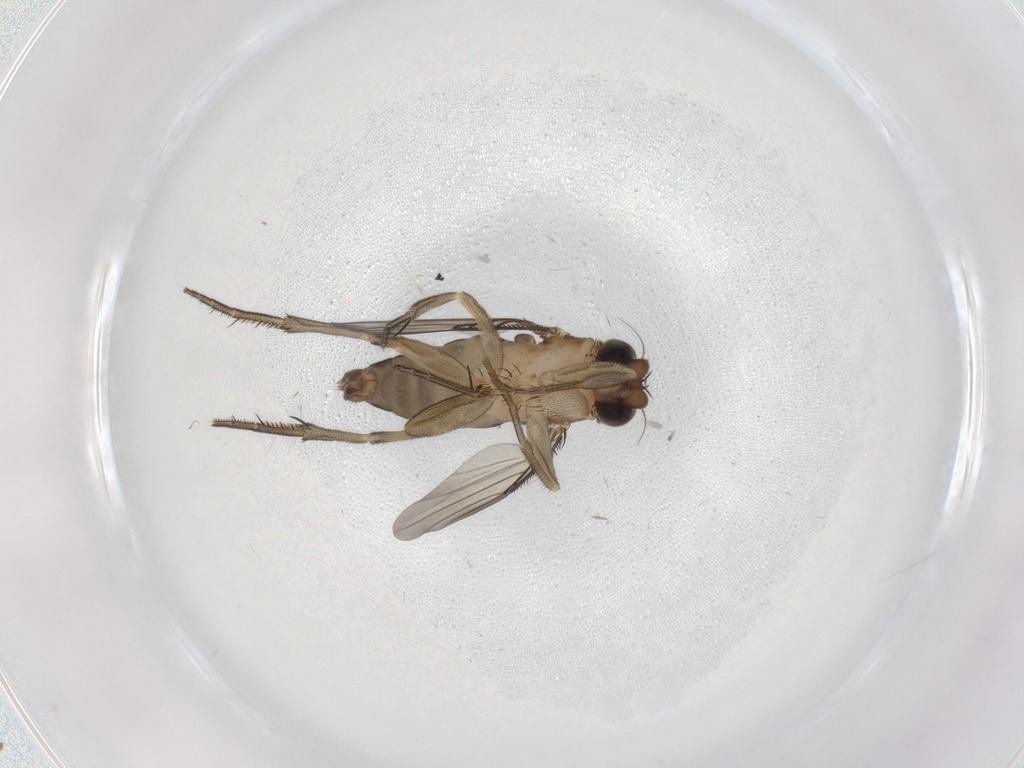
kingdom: Animalia
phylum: Arthropoda
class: Insecta
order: Diptera
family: Phoridae
